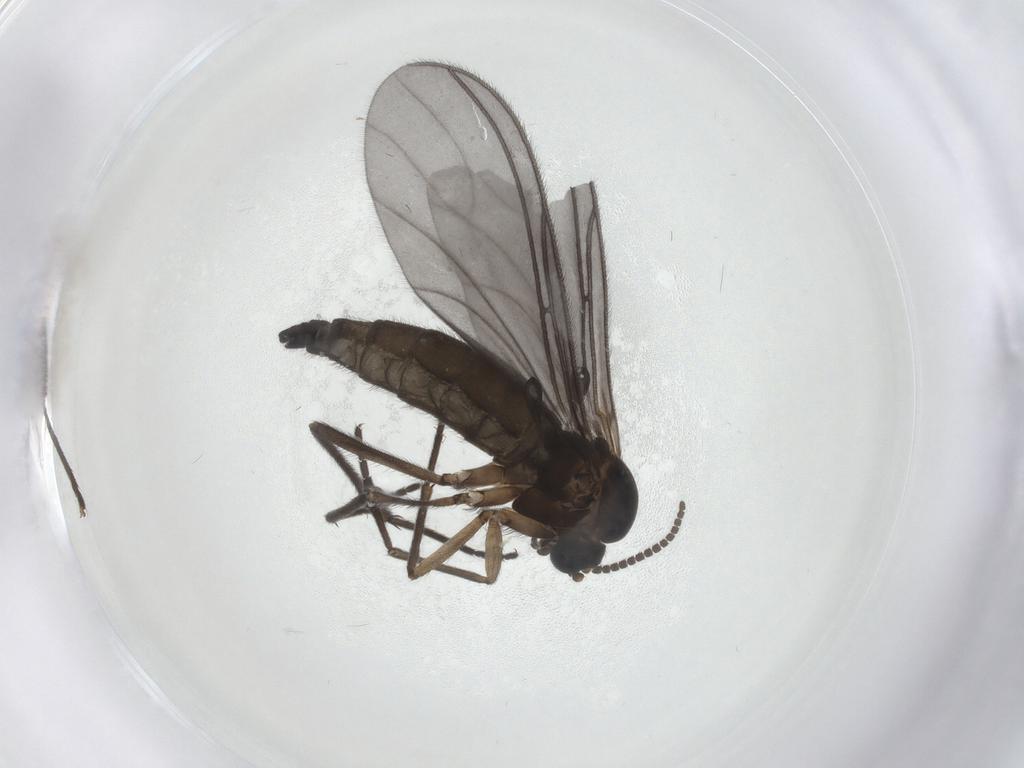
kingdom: Animalia
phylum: Arthropoda
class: Insecta
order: Diptera
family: Sciaridae
